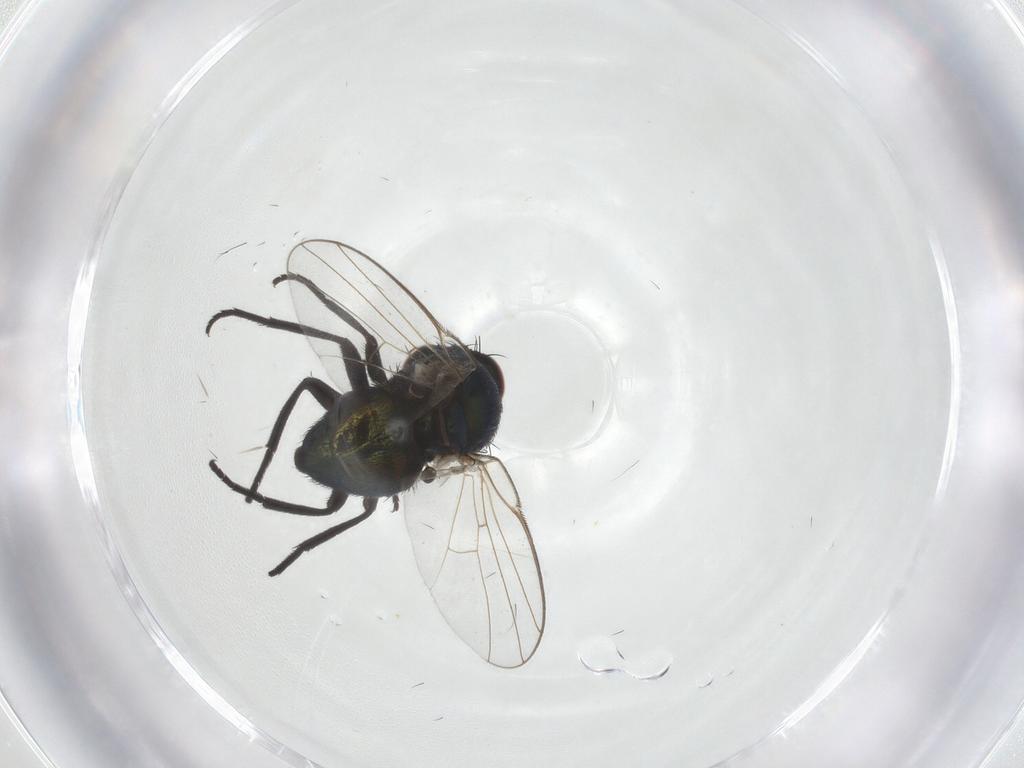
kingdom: Animalia
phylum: Arthropoda
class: Insecta
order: Diptera
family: Agromyzidae
